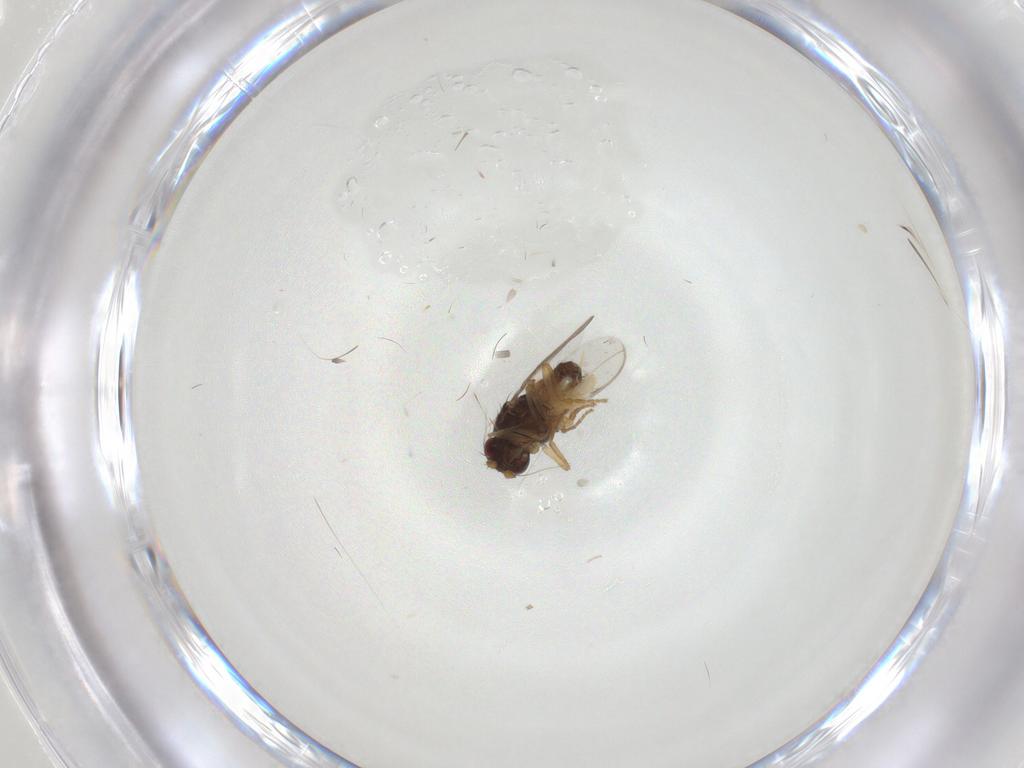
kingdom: Animalia
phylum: Arthropoda
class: Insecta
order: Diptera
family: Sphaeroceridae
